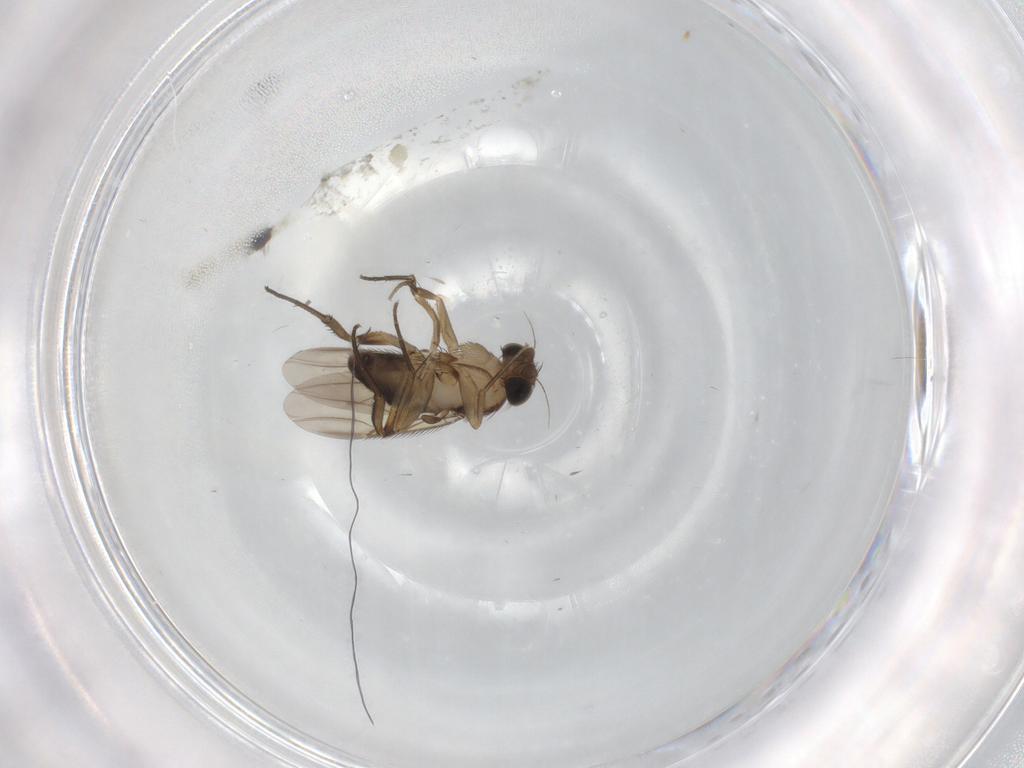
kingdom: Animalia
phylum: Arthropoda
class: Insecta
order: Diptera
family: Phoridae
